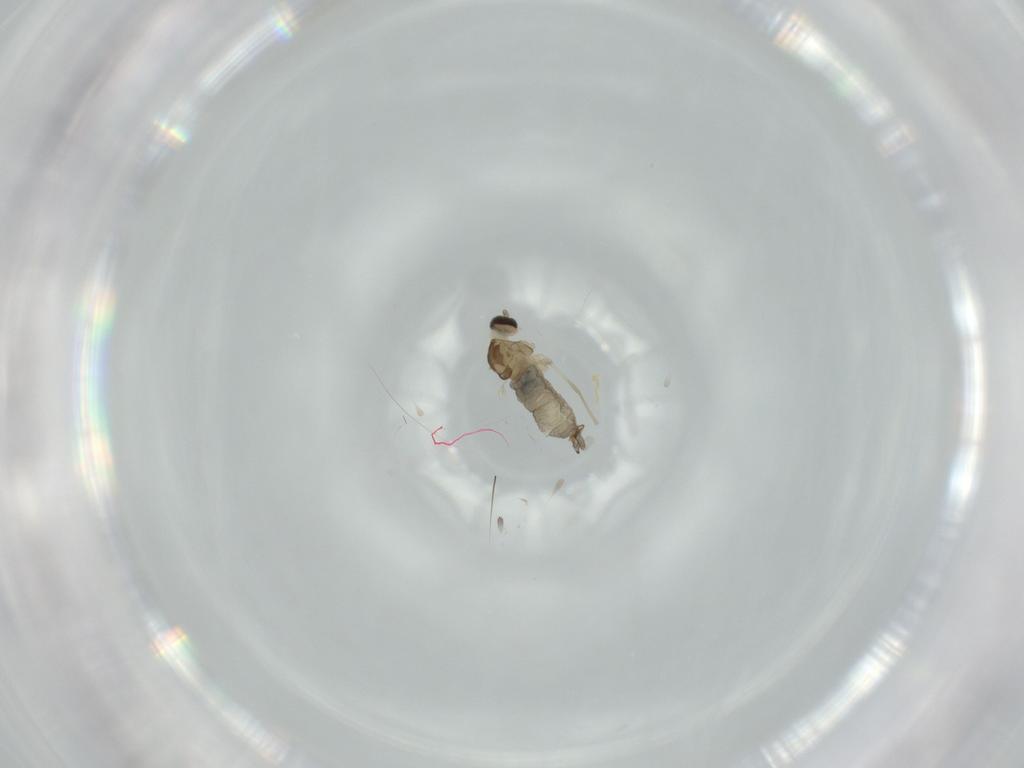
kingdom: Animalia
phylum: Arthropoda
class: Insecta
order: Diptera
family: Cecidomyiidae
